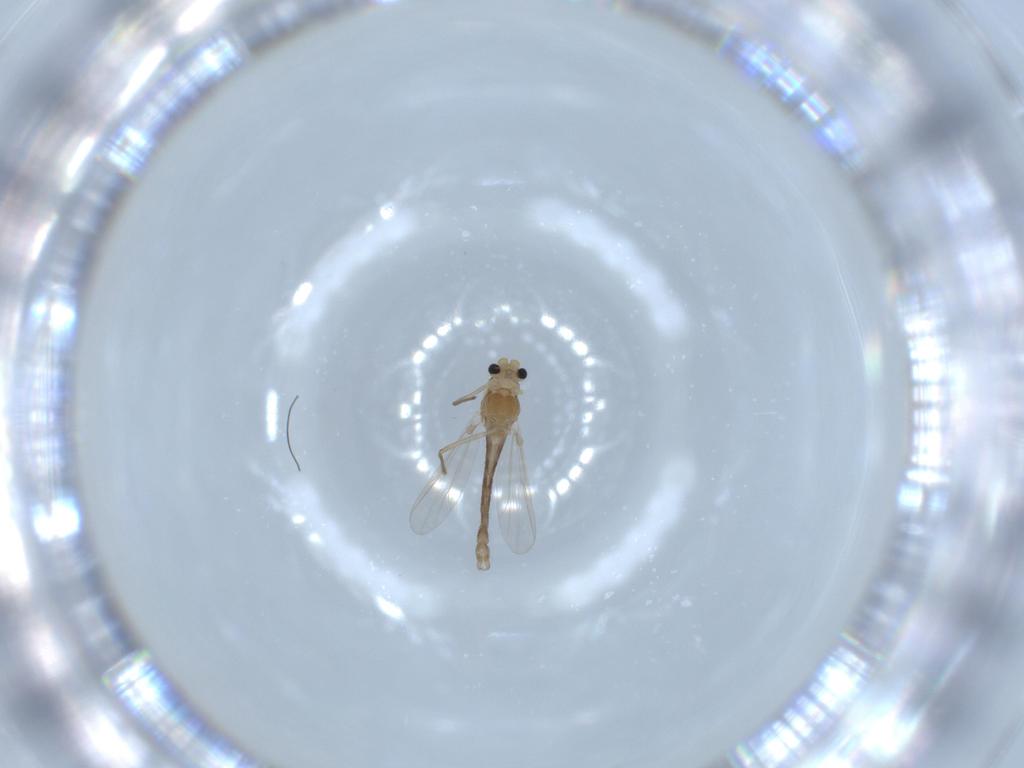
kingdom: Animalia
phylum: Arthropoda
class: Insecta
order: Diptera
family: Chironomidae
